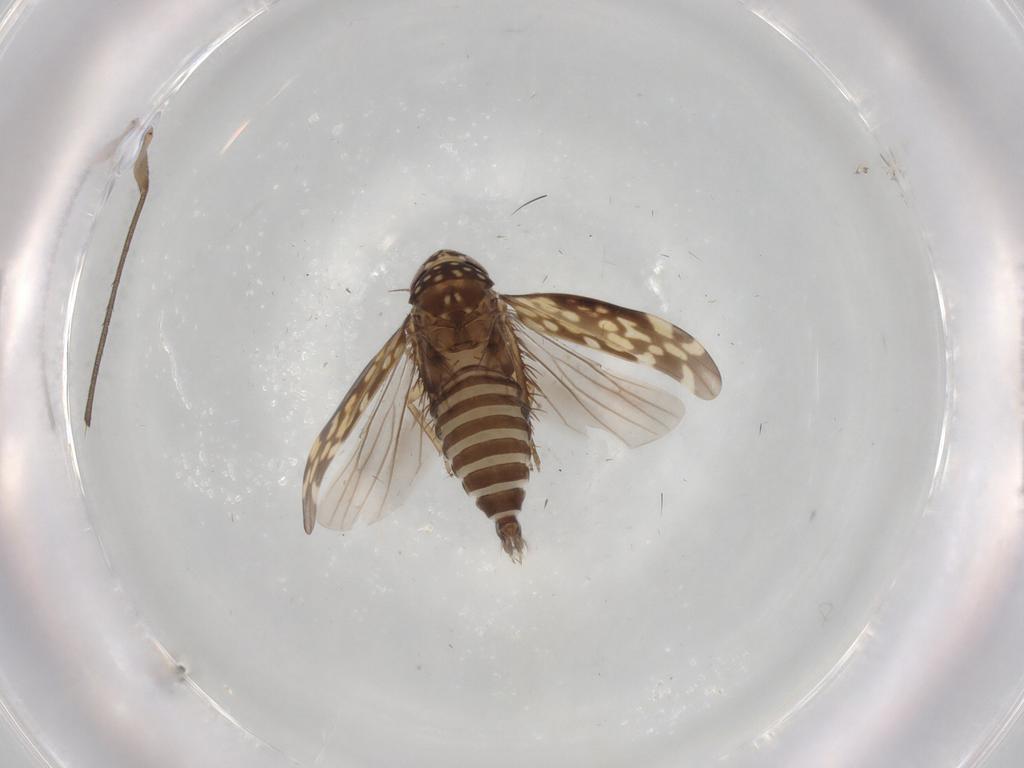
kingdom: Animalia
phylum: Arthropoda
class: Insecta
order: Hemiptera
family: Cicadellidae
